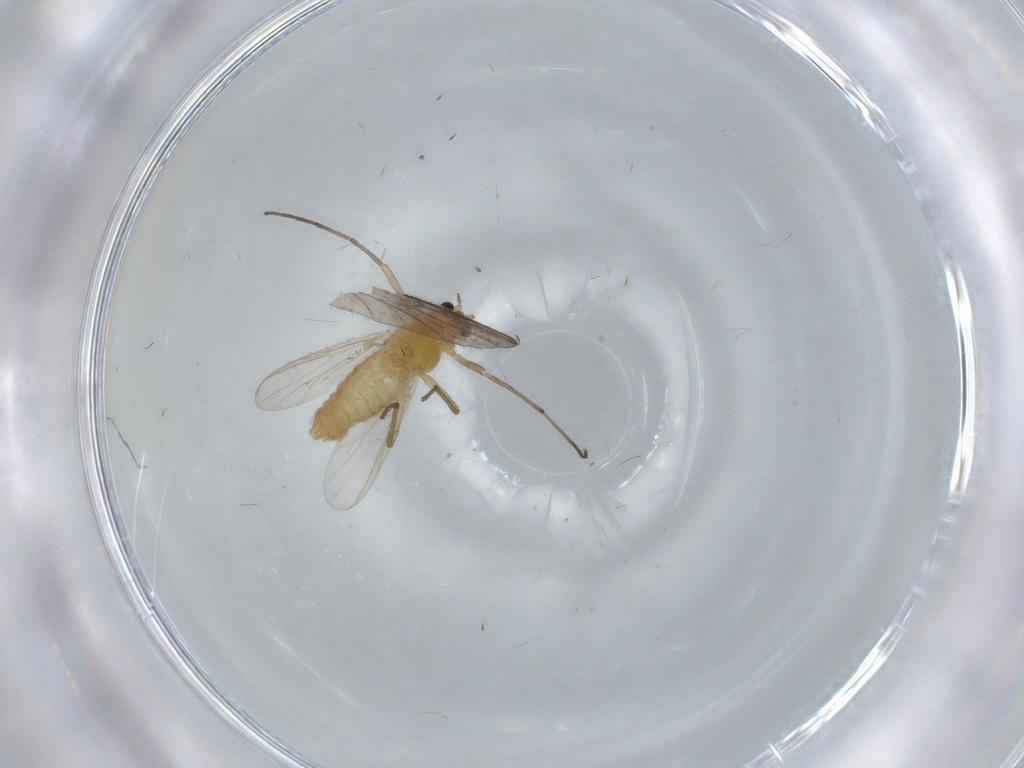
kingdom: Animalia
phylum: Arthropoda
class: Insecta
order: Diptera
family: Chironomidae
